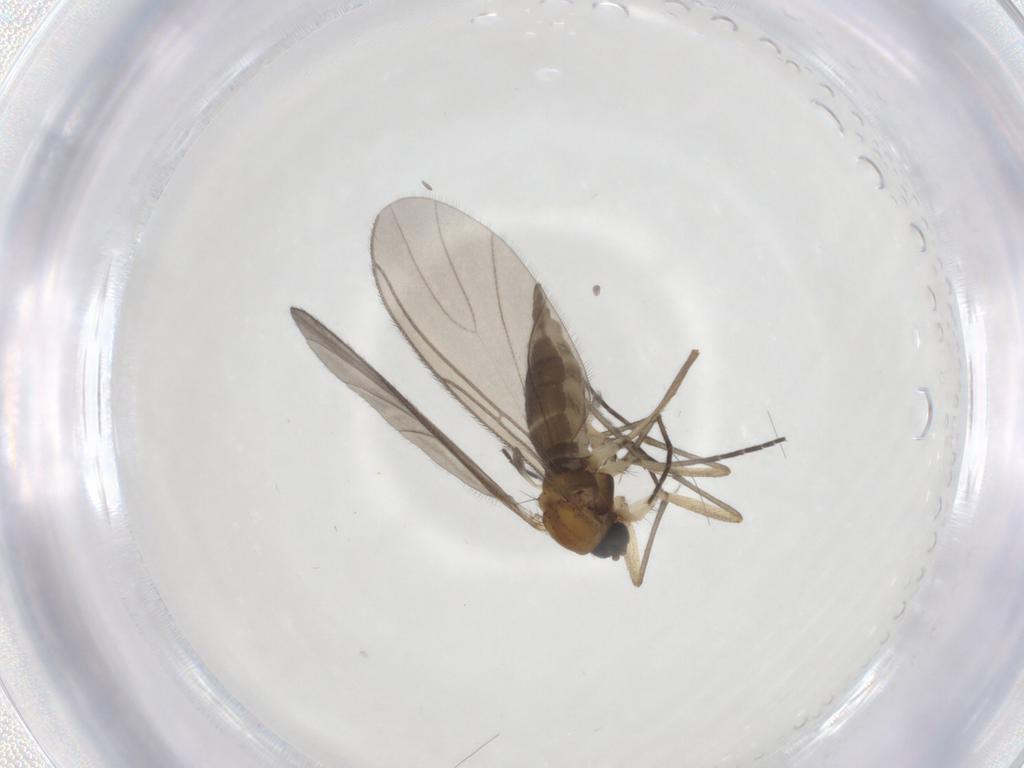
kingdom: Animalia
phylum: Arthropoda
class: Insecta
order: Diptera
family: Sciaridae
